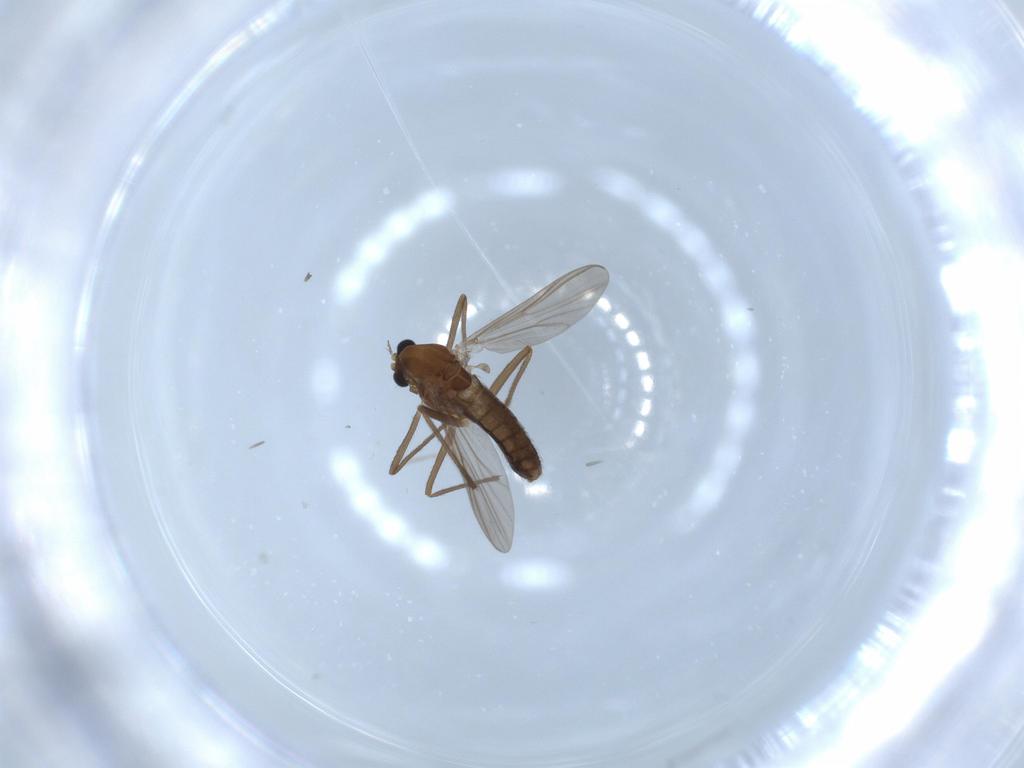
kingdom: Animalia
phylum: Arthropoda
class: Insecta
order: Diptera
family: Chironomidae
